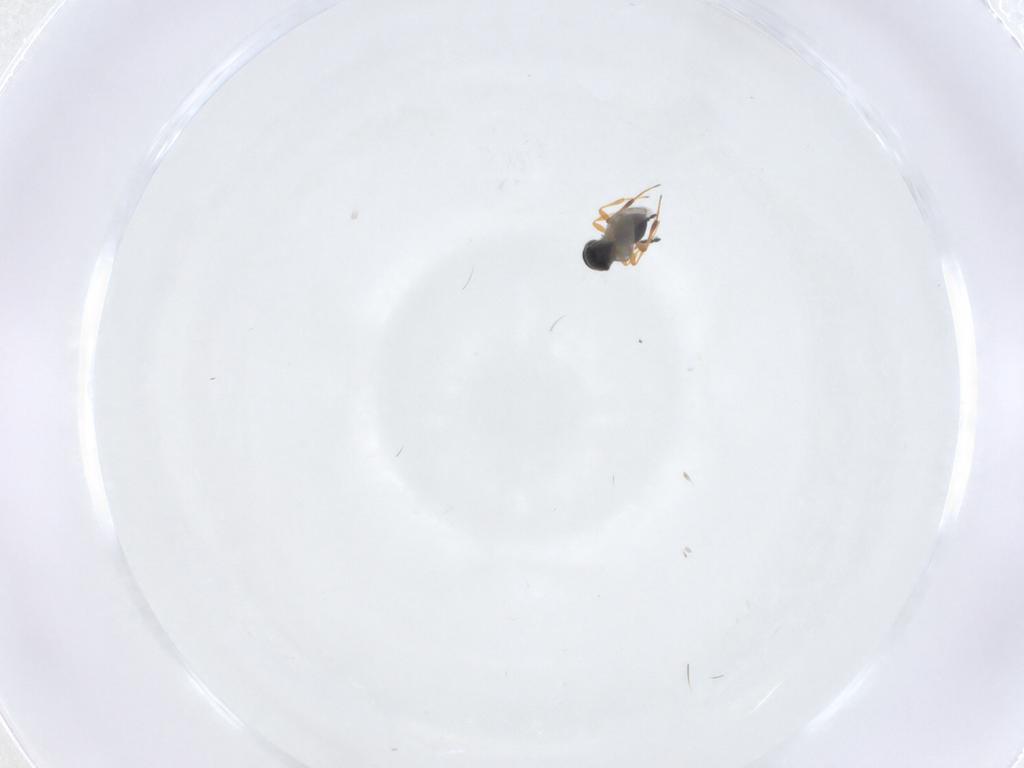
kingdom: Animalia
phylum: Arthropoda
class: Insecta
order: Hymenoptera
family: Platygastridae
